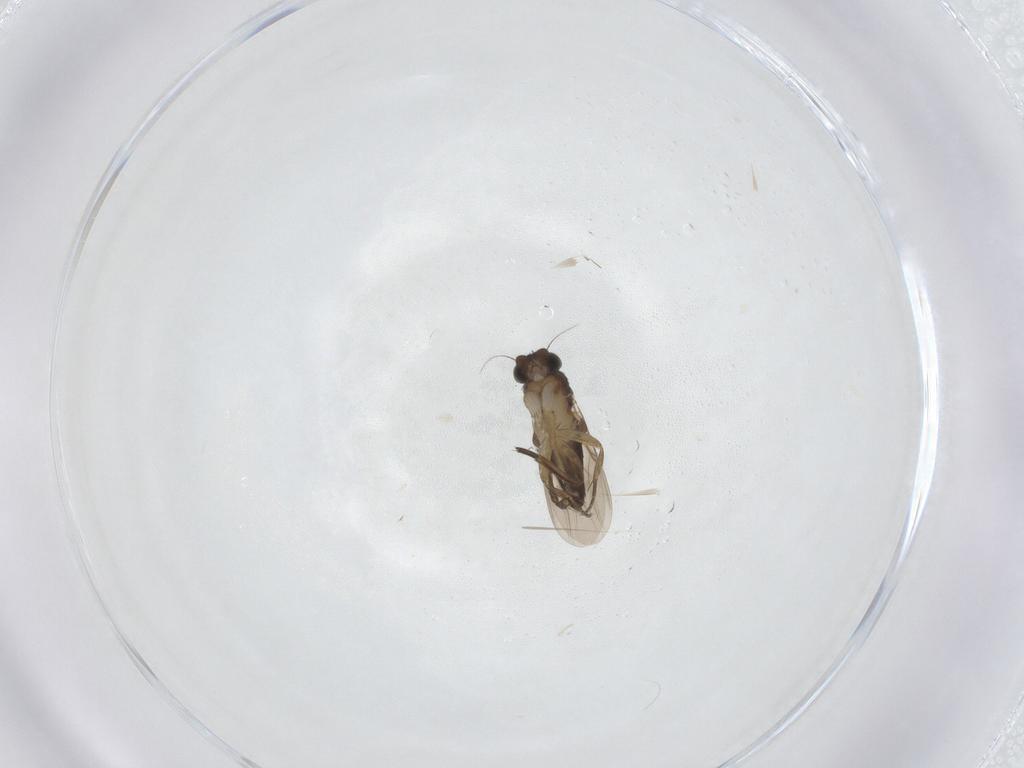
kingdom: Animalia
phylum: Arthropoda
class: Insecta
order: Diptera
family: Phoridae
